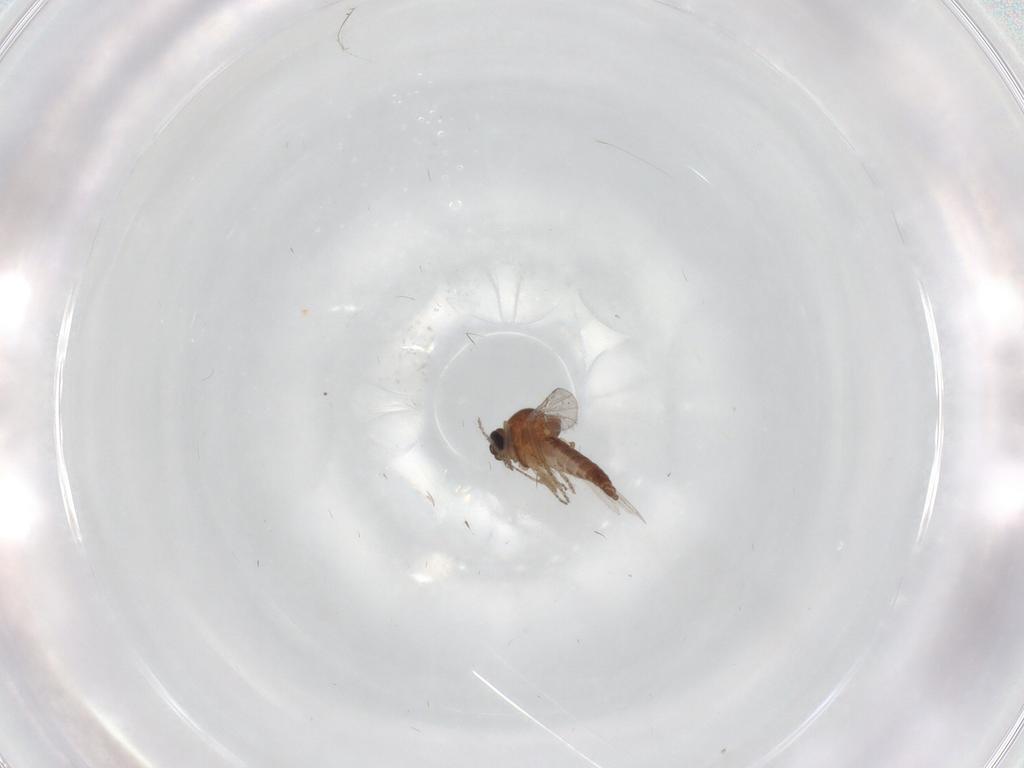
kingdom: Animalia
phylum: Arthropoda
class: Insecta
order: Diptera
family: Ceratopogonidae
